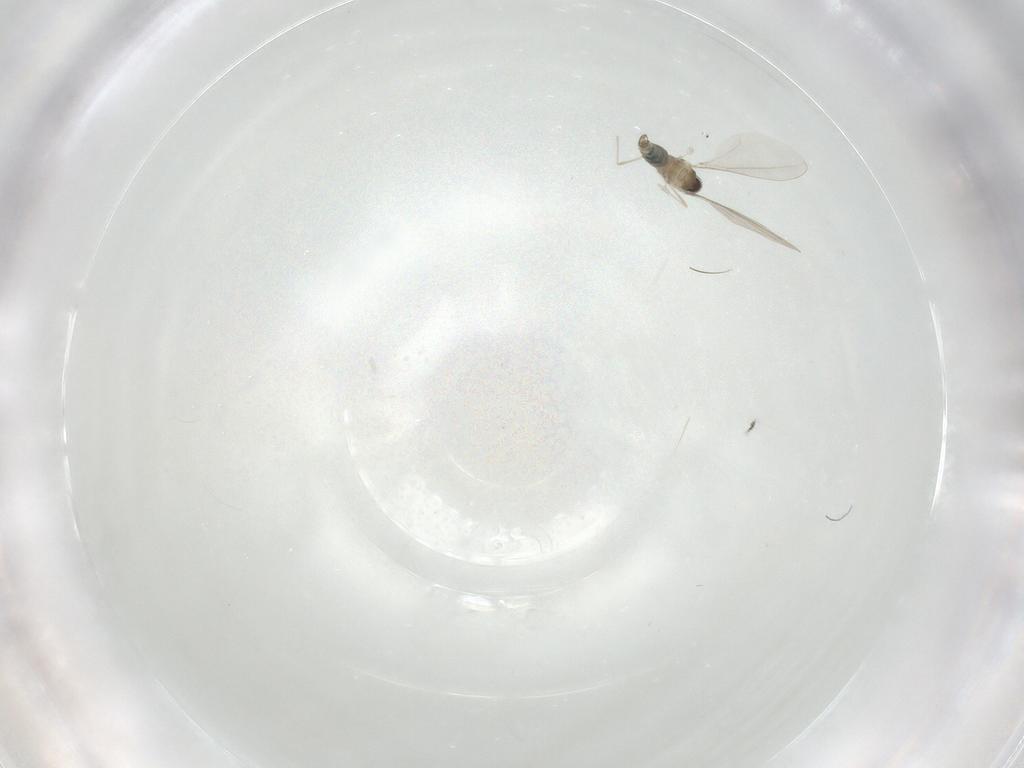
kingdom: Animalia
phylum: Arthropoda
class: Insecta
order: Diptera
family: Cecidomyiidae
